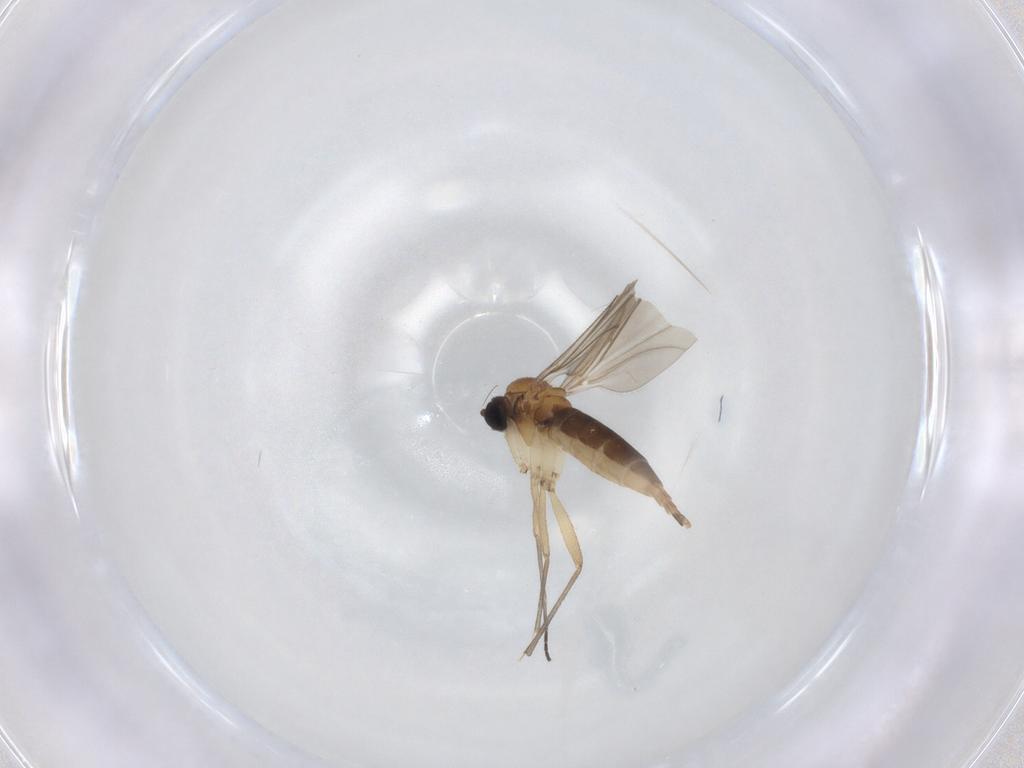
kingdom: Animalia
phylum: Arthropoda
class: Insecta
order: Diptera
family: Sciaridae
